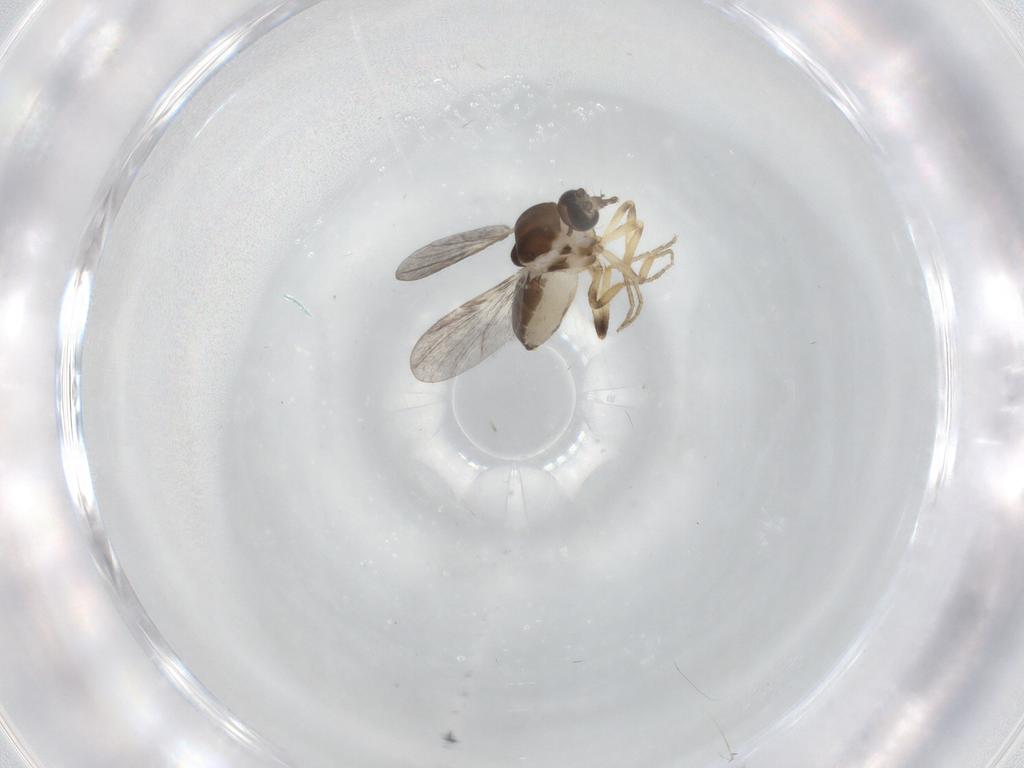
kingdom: Animalia
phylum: Arthropoda
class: Insecta
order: Diptera
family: Ceratopogonidae
